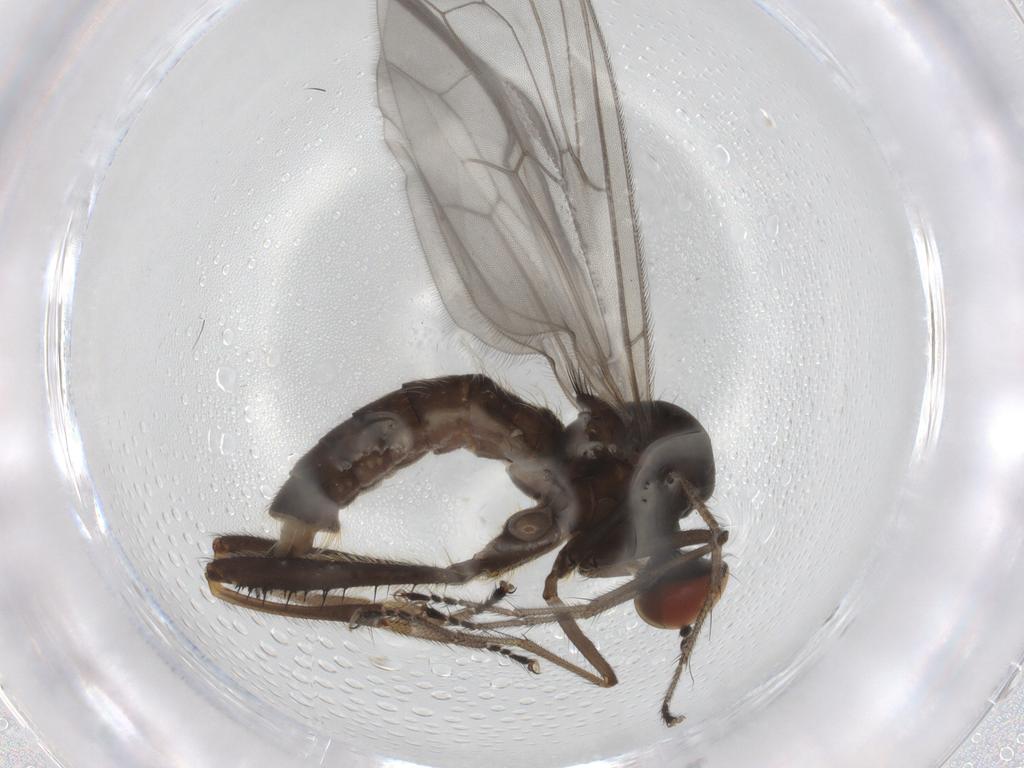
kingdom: Animalia
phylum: Arthropoda
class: Insecta
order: Diptera
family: Hybotidae
